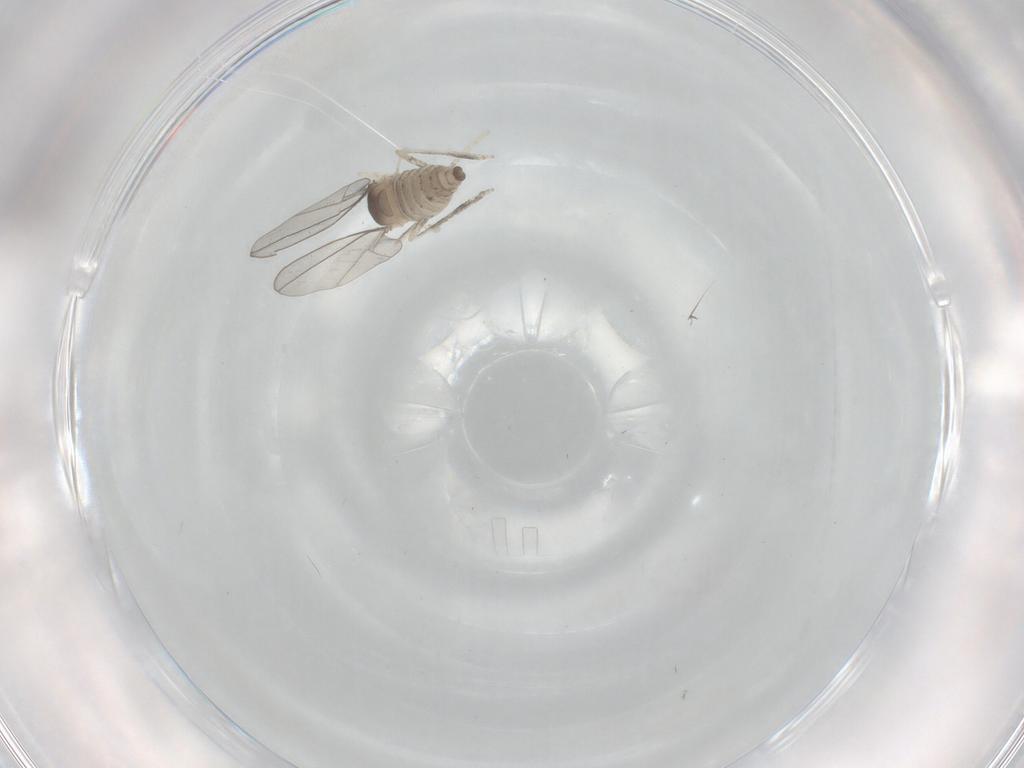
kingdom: Animalia
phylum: Arthropoda
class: Insecta
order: Diptera
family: Cecidomyiidae
